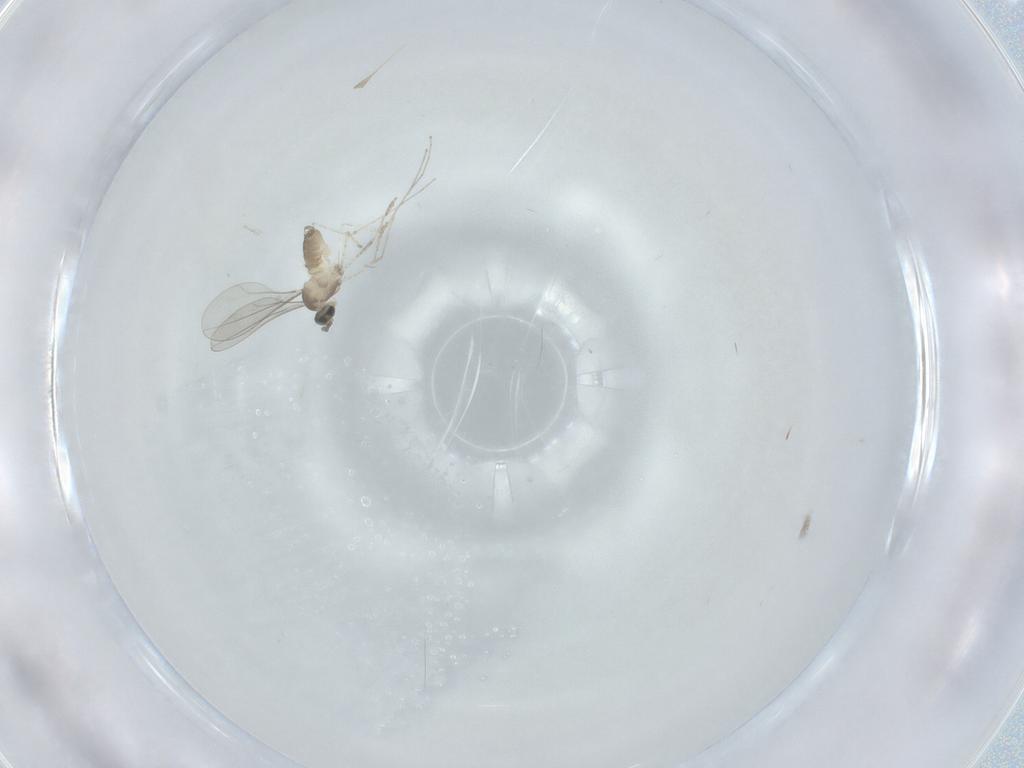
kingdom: Animalia
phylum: Arthropoda
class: Insecta
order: Diptera
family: Cecidomyiidae
